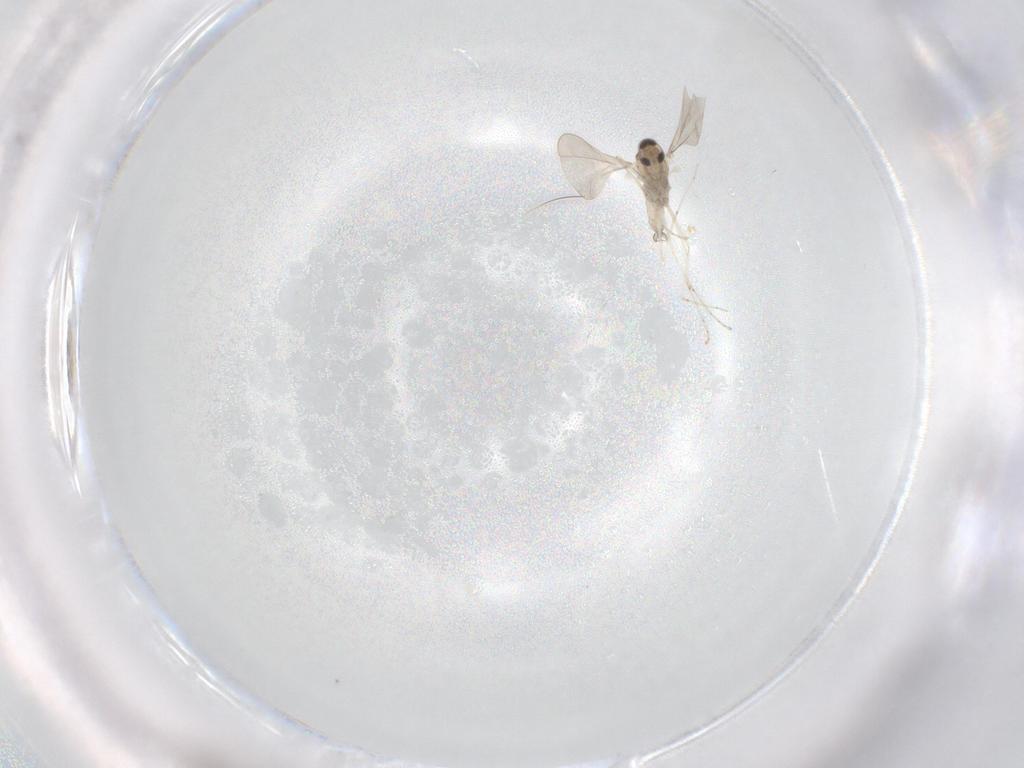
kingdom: Animalia
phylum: Arthropoda
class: Insecta
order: Diptera
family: Cecidomyiidae
